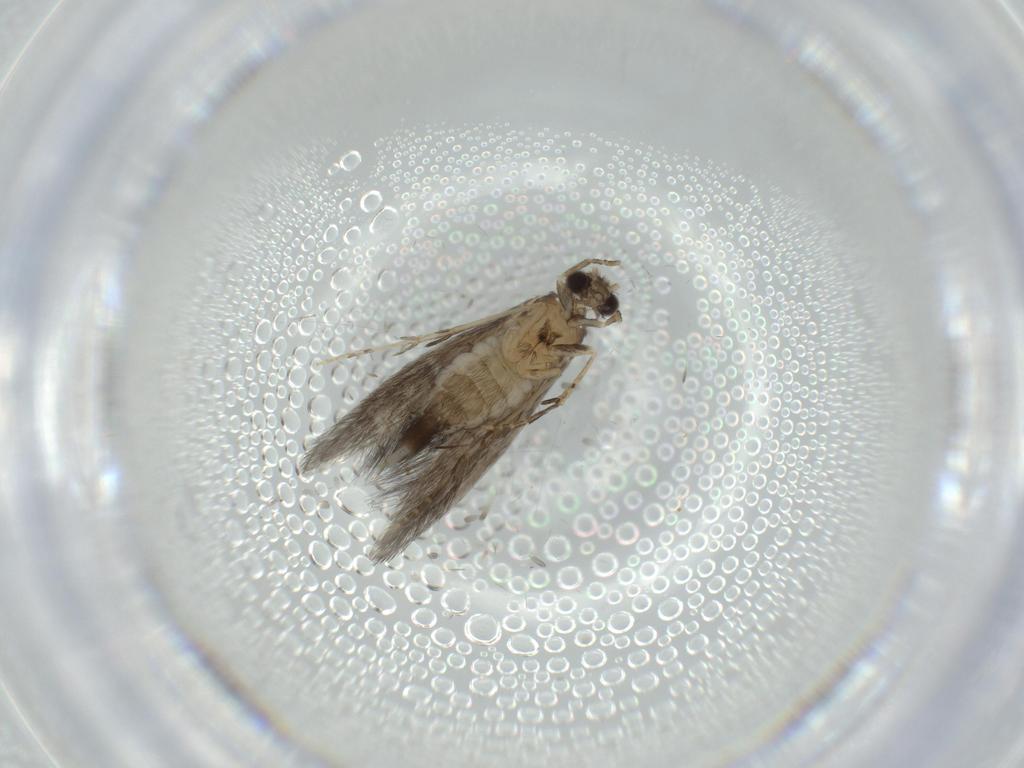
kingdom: Animalia
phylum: Arthropoda
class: Insecta
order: Trichoptera
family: Hydroptilidae
